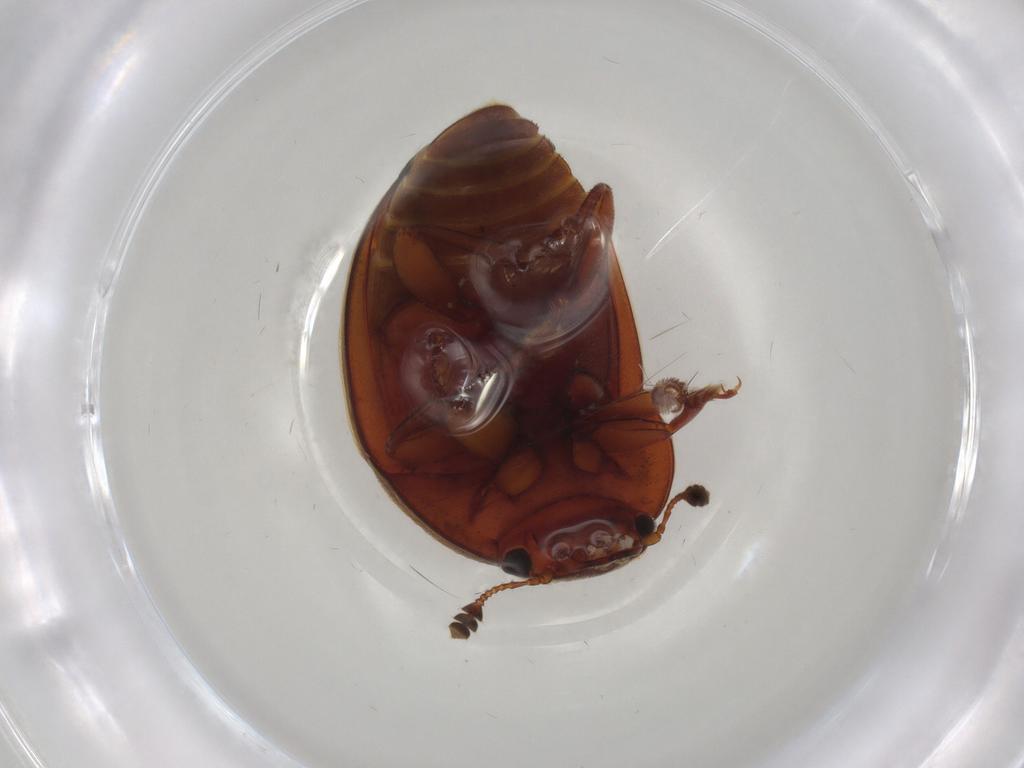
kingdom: Animalia
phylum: Arthropoda
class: Insecta
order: Coleoptera
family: Nitidulidae
